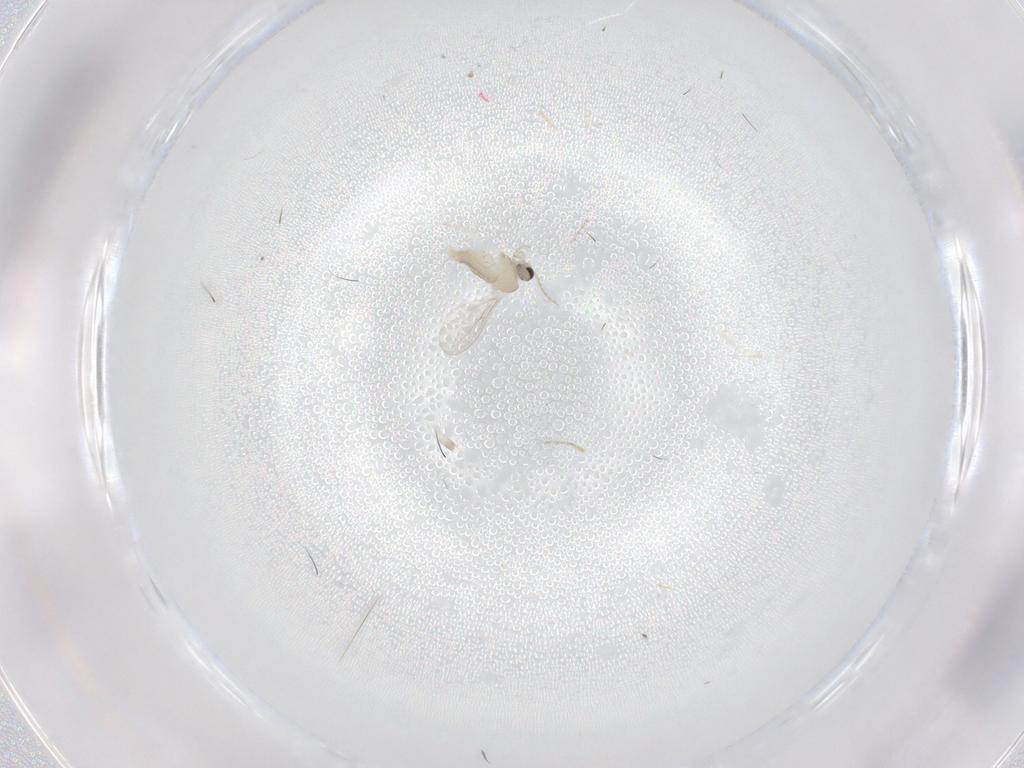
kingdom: Animalia
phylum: Arthropoda
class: Insecta
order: Diptera
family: Cecidomyiidae
